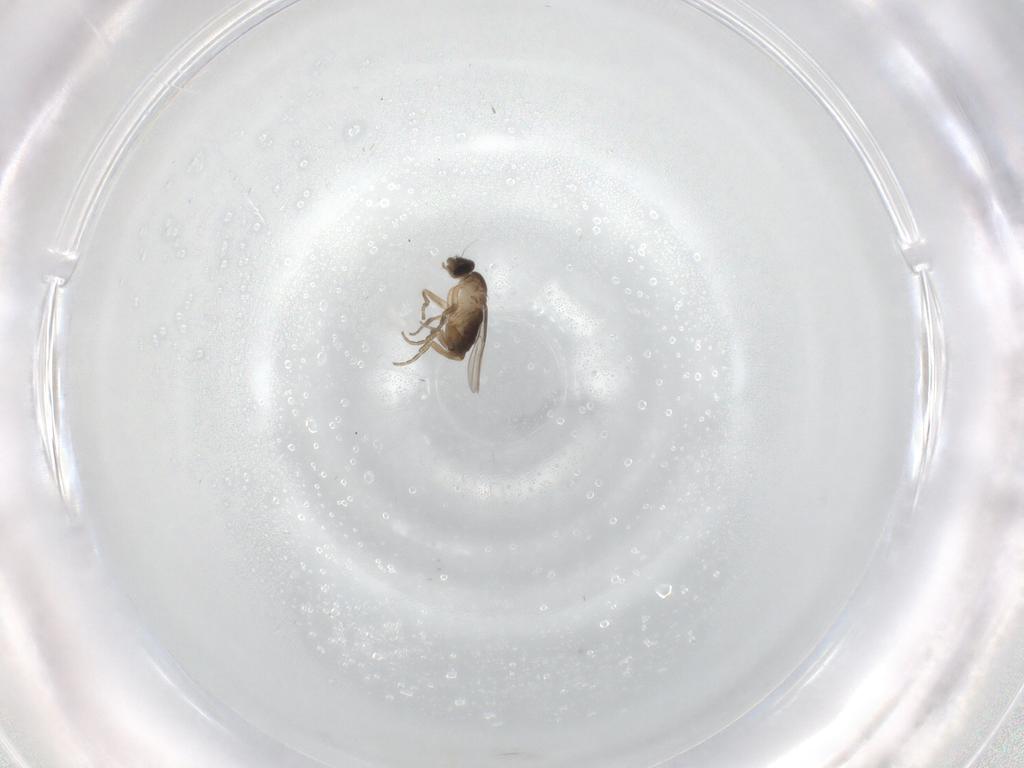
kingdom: Animalia
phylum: Arthropoda
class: Insecta
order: Diptera
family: Phoridae
